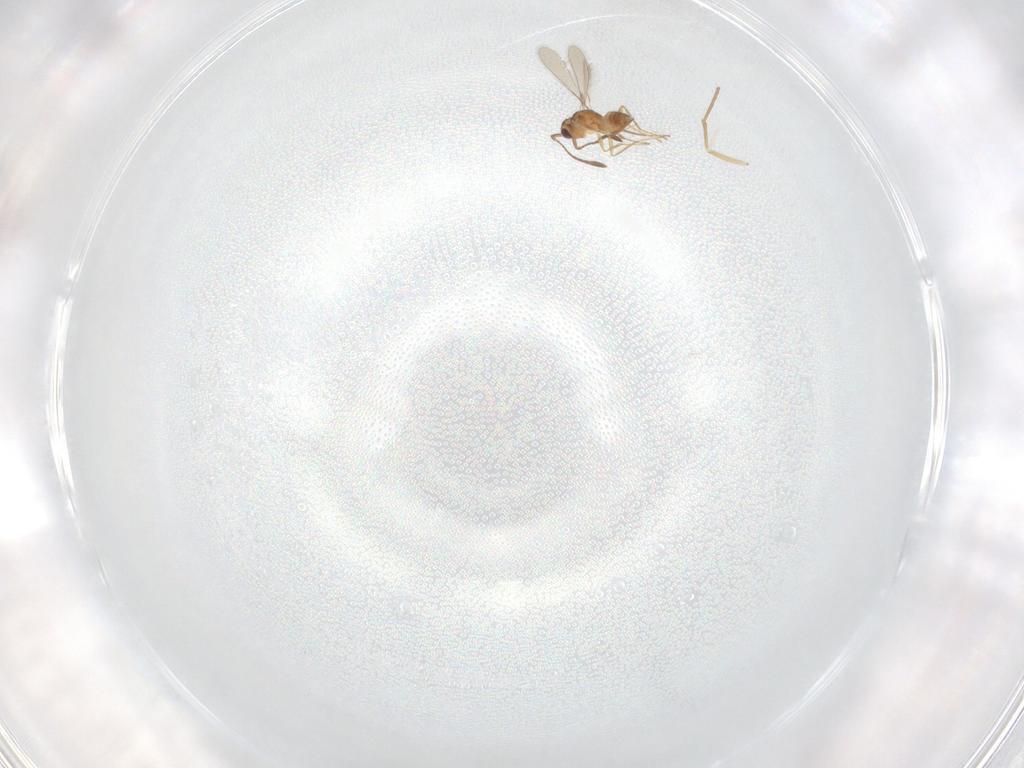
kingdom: Animalia
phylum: Arthropoda
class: Insecta
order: Hymenoptera
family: Mymaridae
